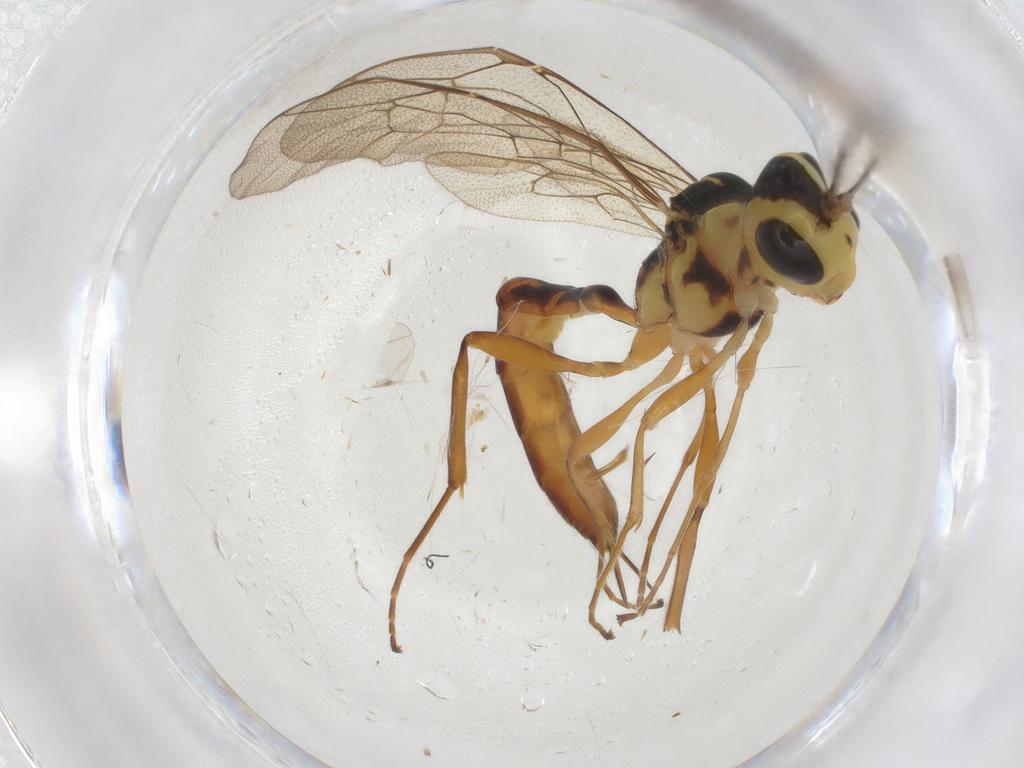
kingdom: Animalia
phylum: Arthropoda
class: Insecta
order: Hymenoptera
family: Ichneumonidae
